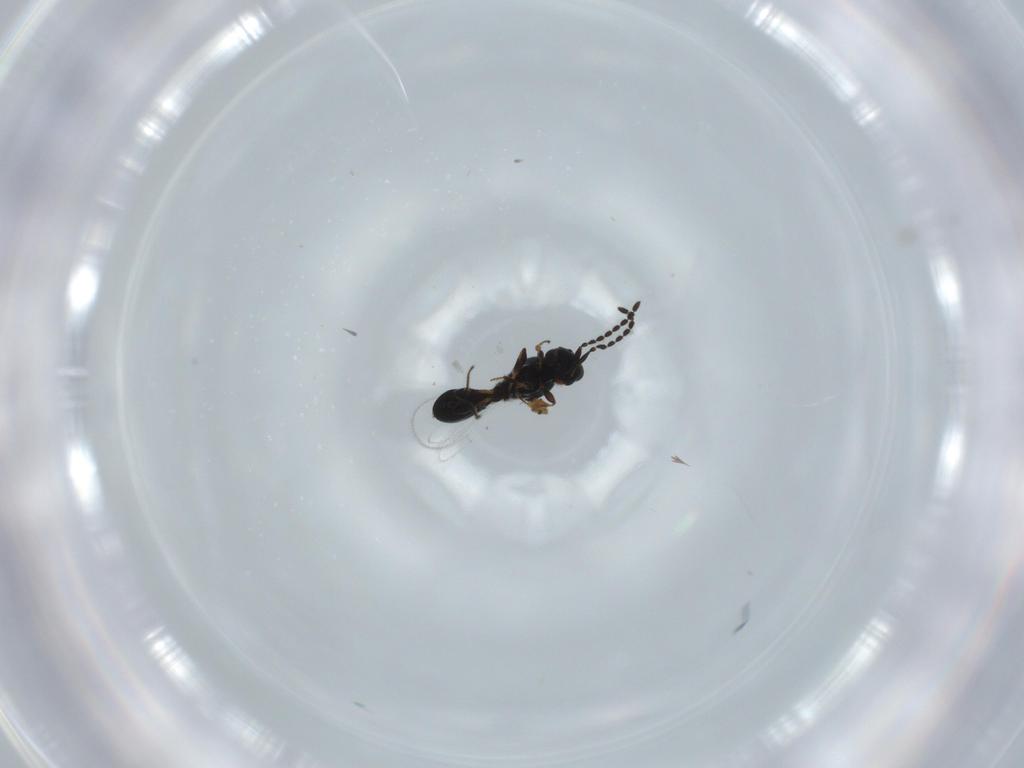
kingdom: Animalia
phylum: Arthropoda
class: Insecta
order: Hymenoptera
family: Platygastridae
